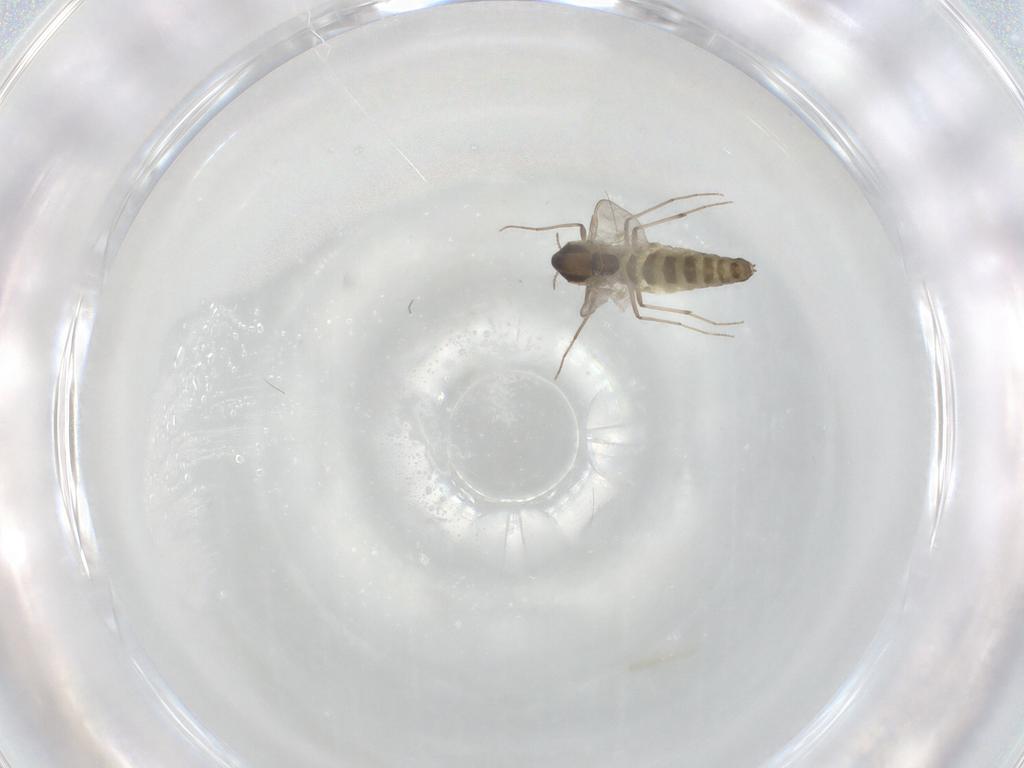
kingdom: Animalia
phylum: Arthropoda
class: Insecta
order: Diptera
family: Chironomidae
